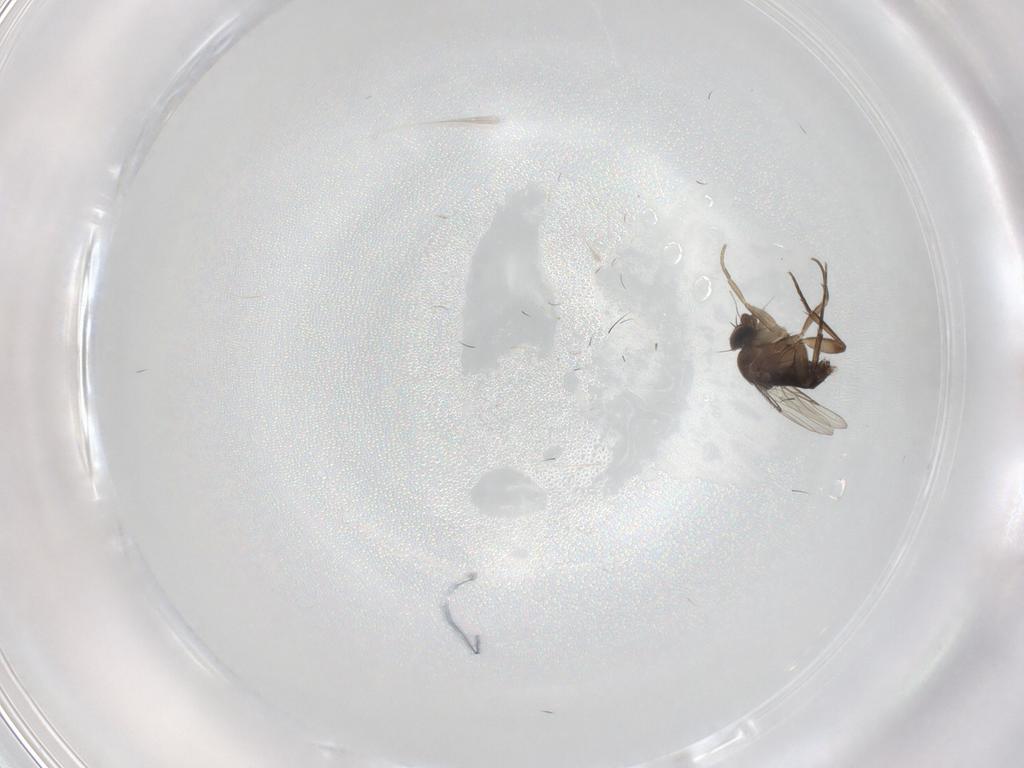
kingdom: Animalia
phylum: Arthropoda
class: Insecta
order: Diptera
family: Phoridae
